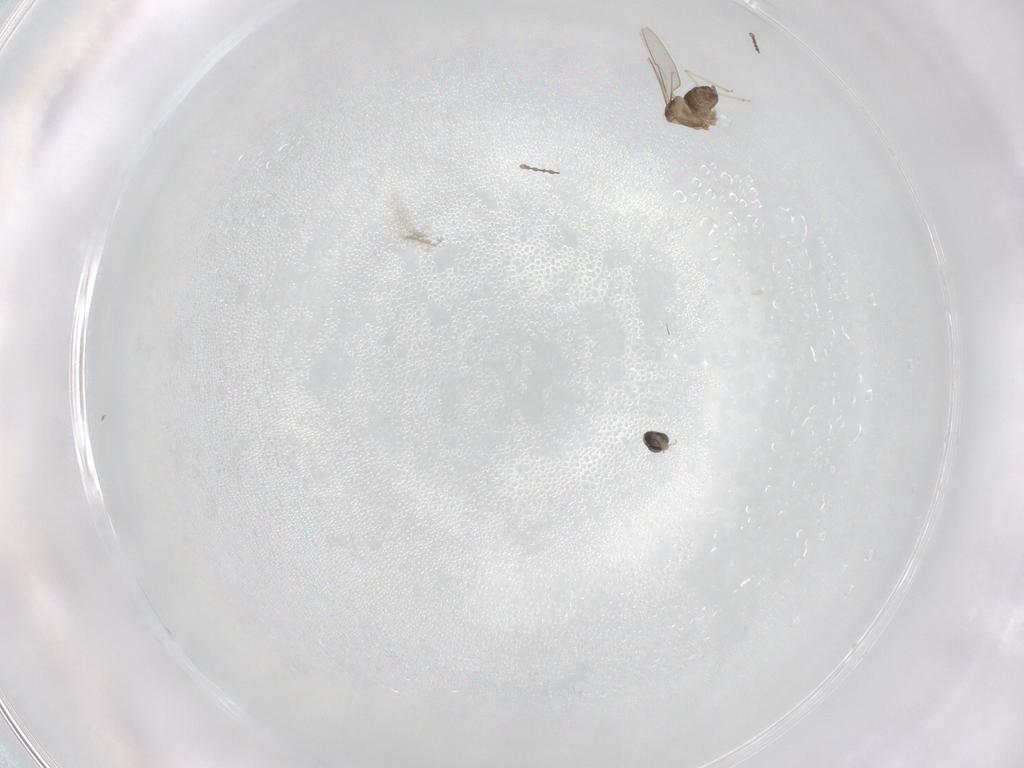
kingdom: Animalia
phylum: Arthropoda
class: Insecta
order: Diptera
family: Cecidomyiidae
